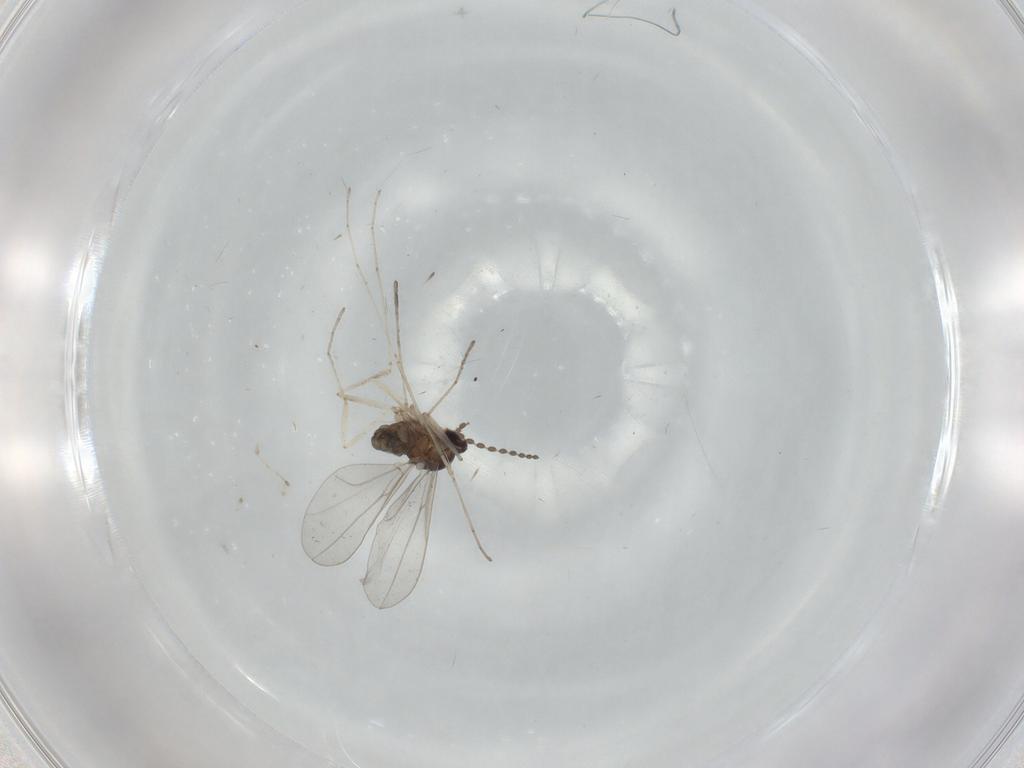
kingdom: Animalia
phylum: Arthropoda
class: Insecta
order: Diptera
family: Cecidomyiidae
